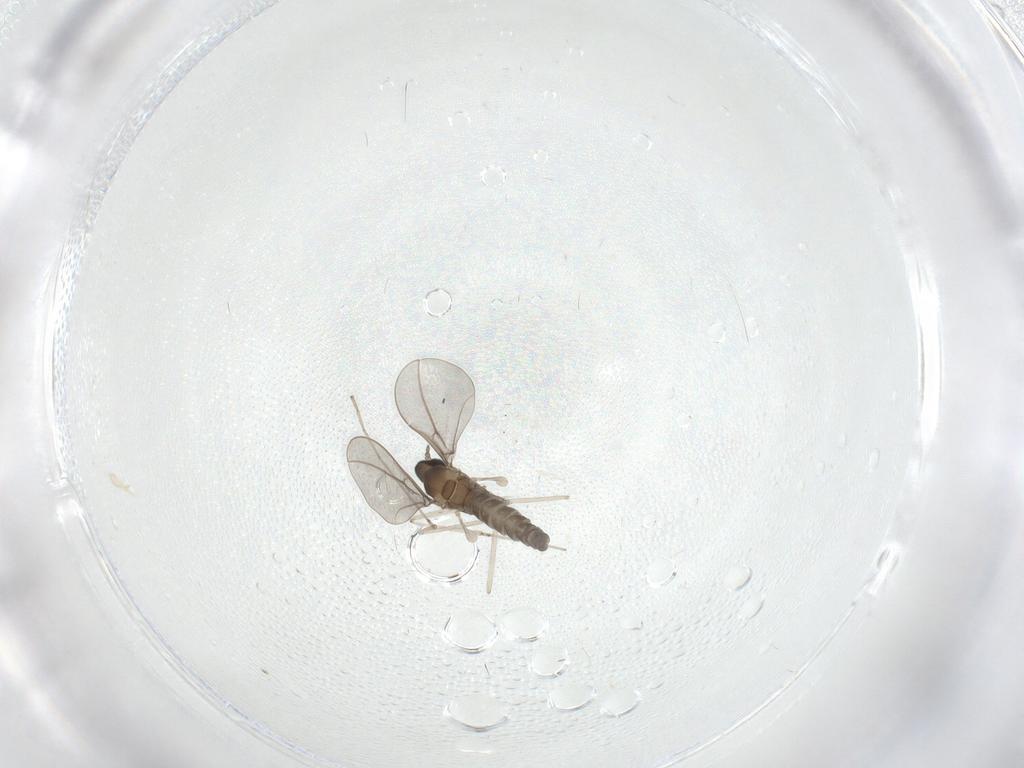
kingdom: Animalia
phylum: Arthropoda
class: Insecta
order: Diptera
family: Cecidomyiidae
